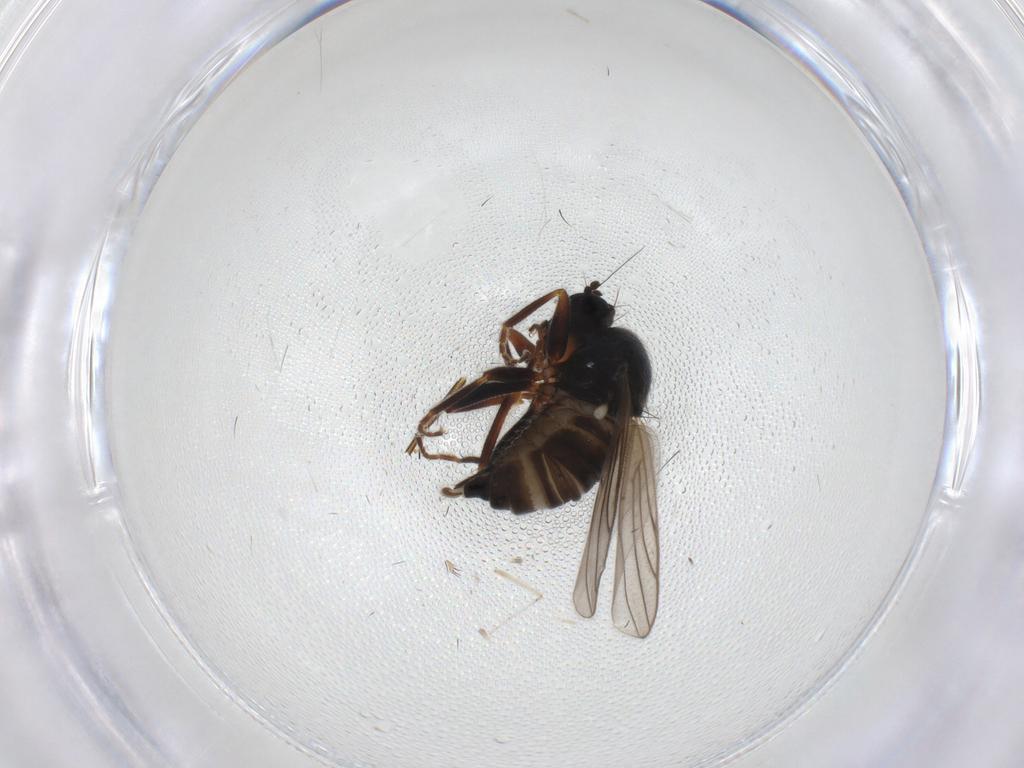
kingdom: Animalia
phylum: Arthropoda
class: Insecta
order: Diptera
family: Cecidomyiidae
